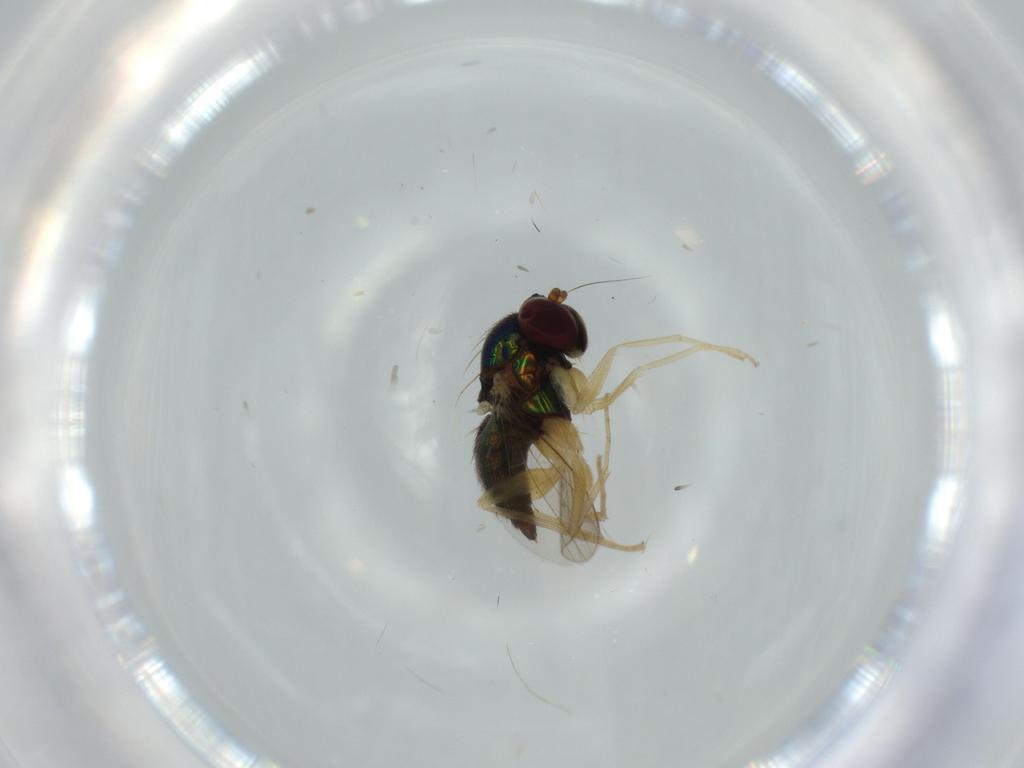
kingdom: Animalia
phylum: Arthropoda
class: Insecta
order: Diptera
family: Dolichopodidae
